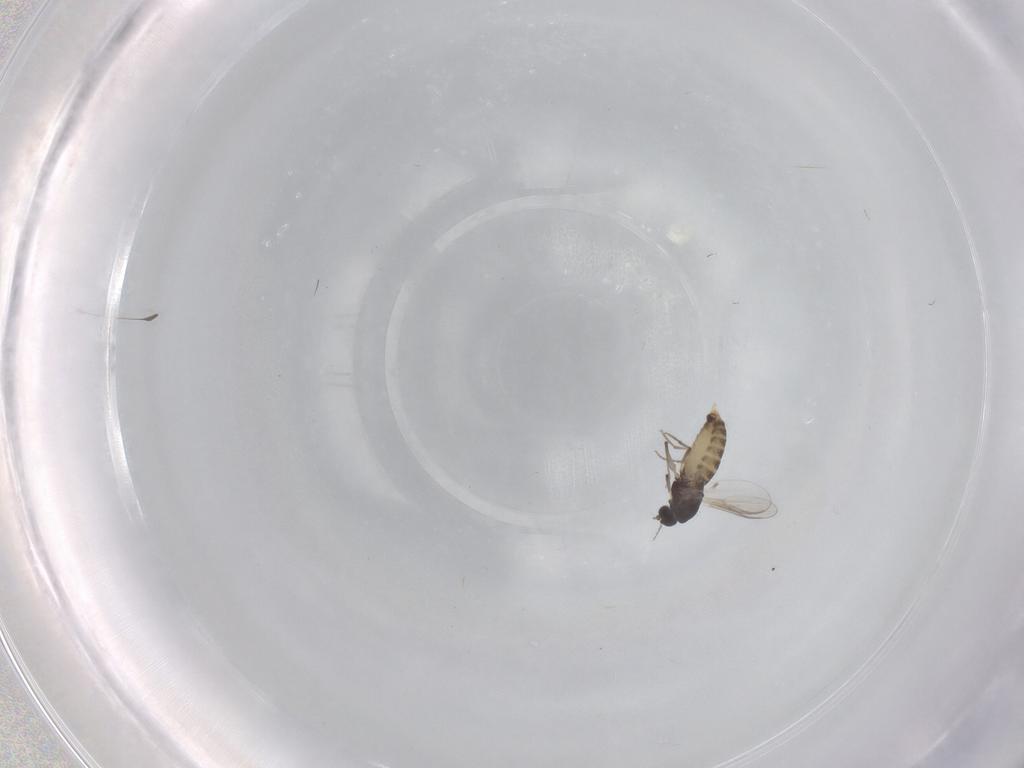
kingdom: Animalia
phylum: Arthropoda
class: Insecta
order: Diptera
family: Chironomidae
